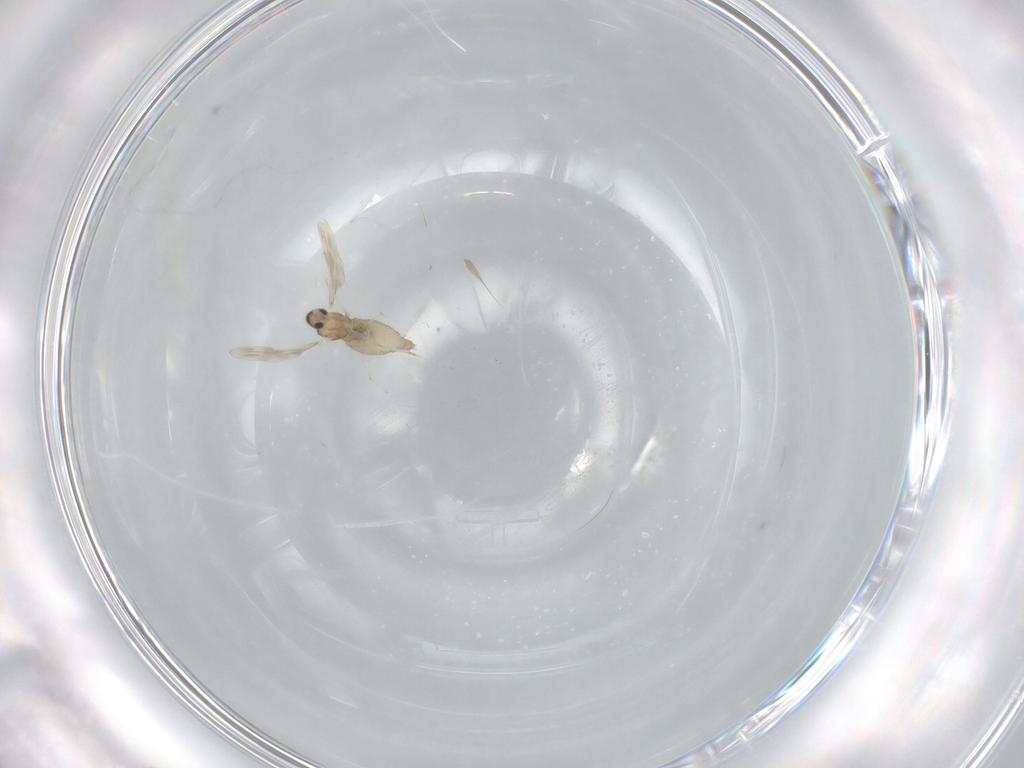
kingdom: Animalia
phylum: Arthropoda
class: Insecta
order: Diptera
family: Cecidomyiidae
